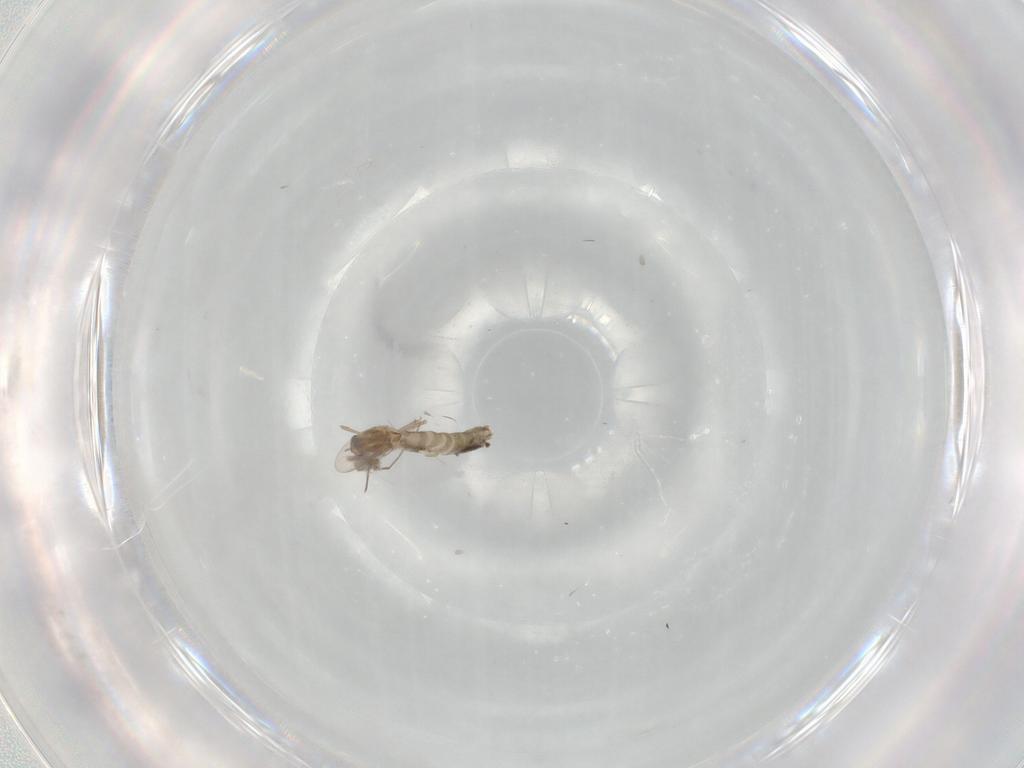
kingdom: Animalia
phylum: Arthropoda
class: Insecta
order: Diptera
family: Chironomidae
